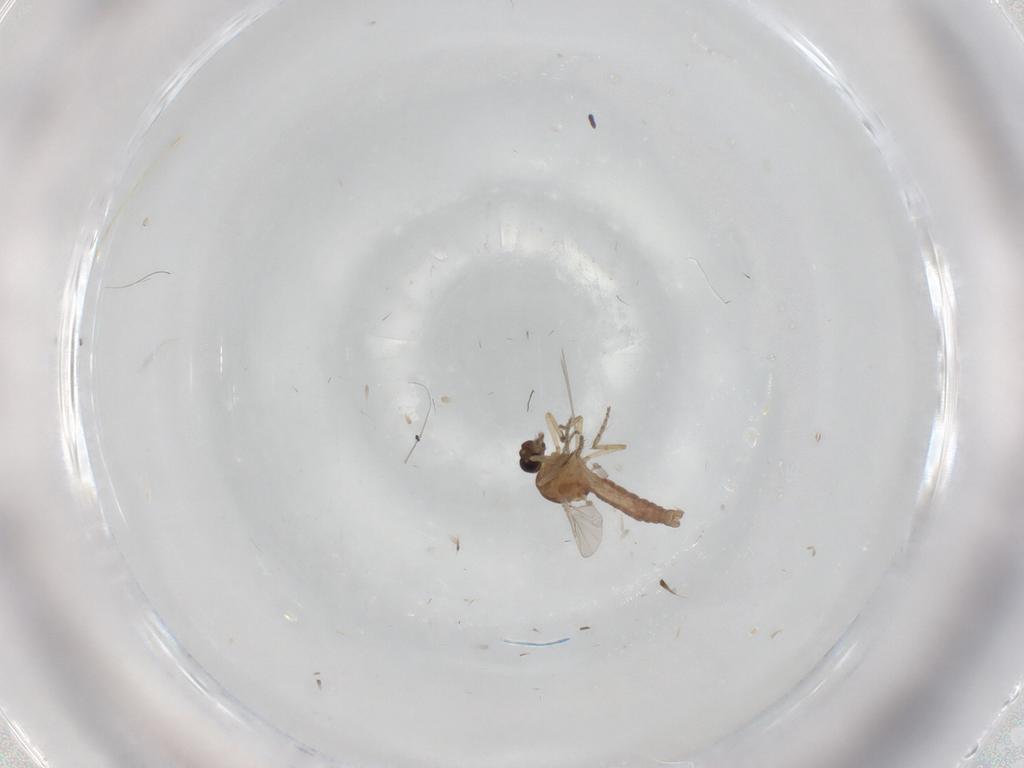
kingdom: Animalia
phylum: Arthropoda
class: Insecta
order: Diptera
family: Cecidomyiidae
